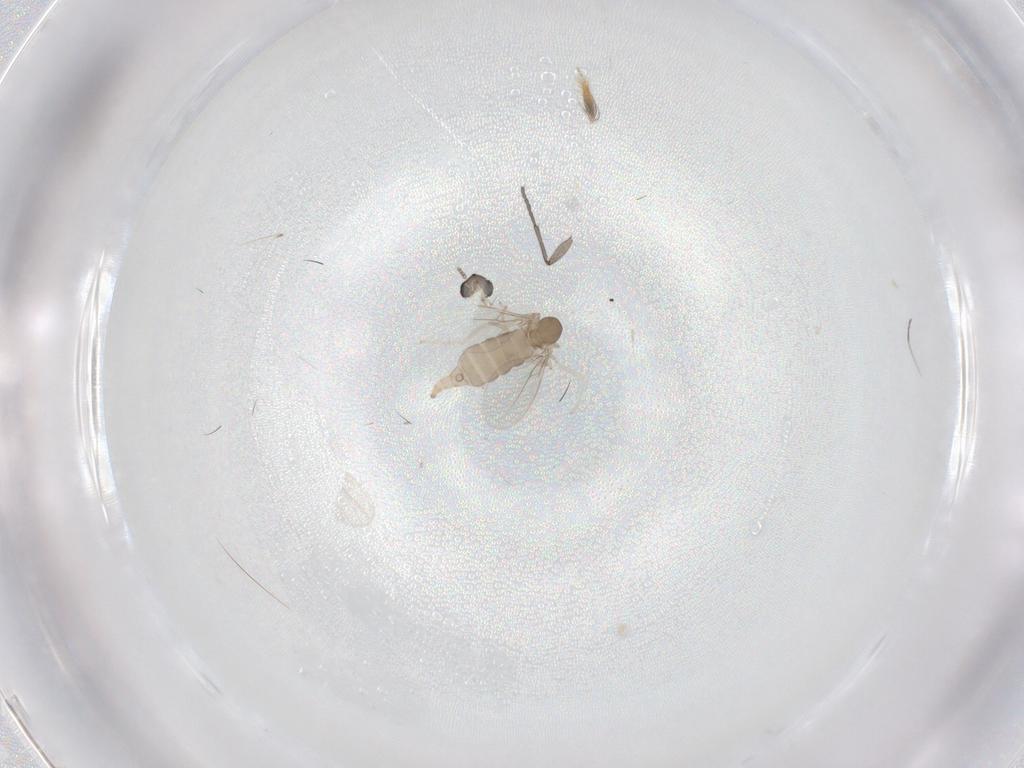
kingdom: Animalia
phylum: Arthropoda
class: Insecta
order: Diptera
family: Cecidomyiidae
